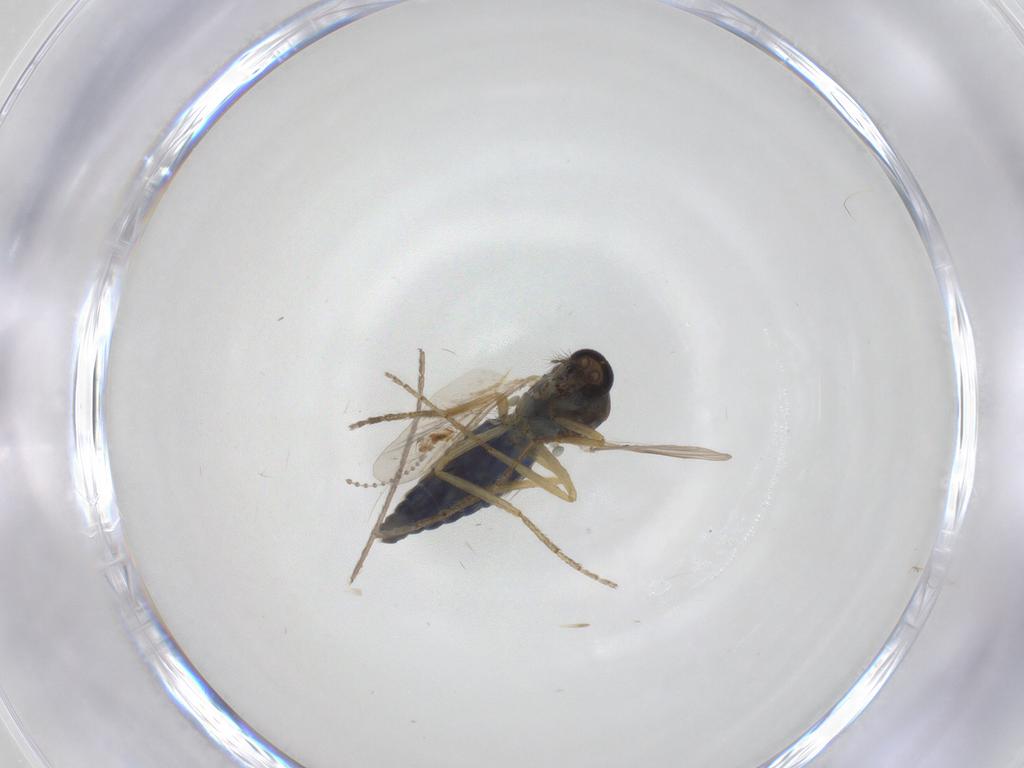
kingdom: Animalia
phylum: Arthropoda
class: Insecta
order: Diptera
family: Ceratopogonidae
